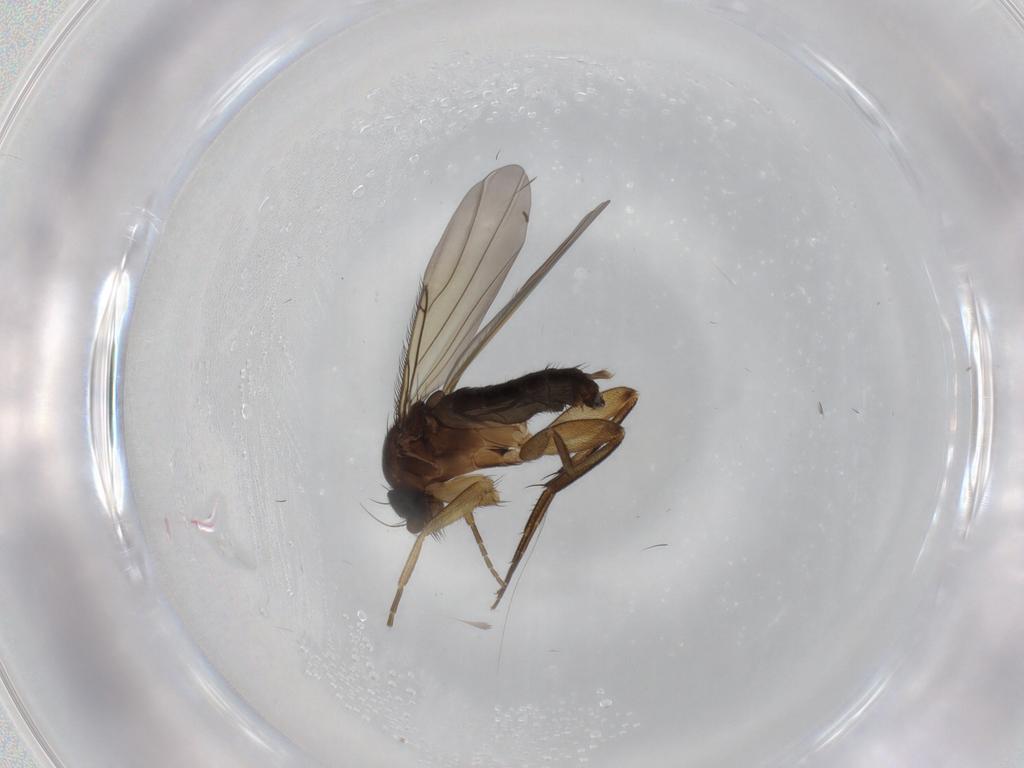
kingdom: Animalia
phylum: Arthropoda
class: Insecta
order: Diptera
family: Phoridae
